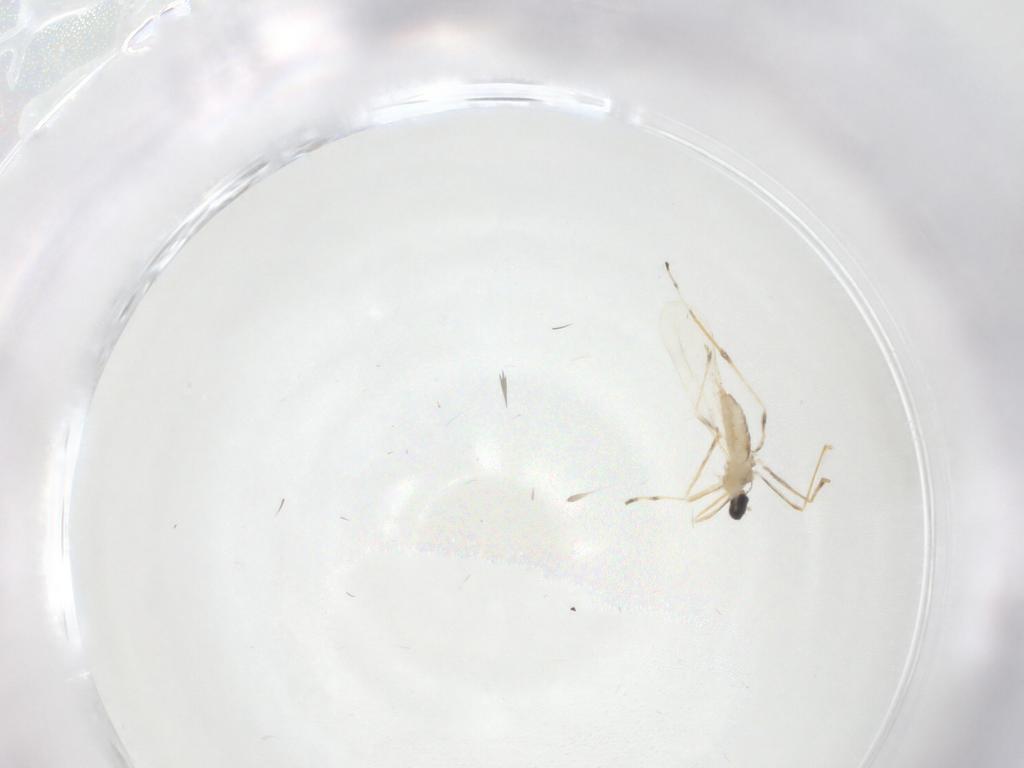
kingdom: Animalia
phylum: Arthropoda
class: Insecta
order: Diptera
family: Cecidomyiidae
